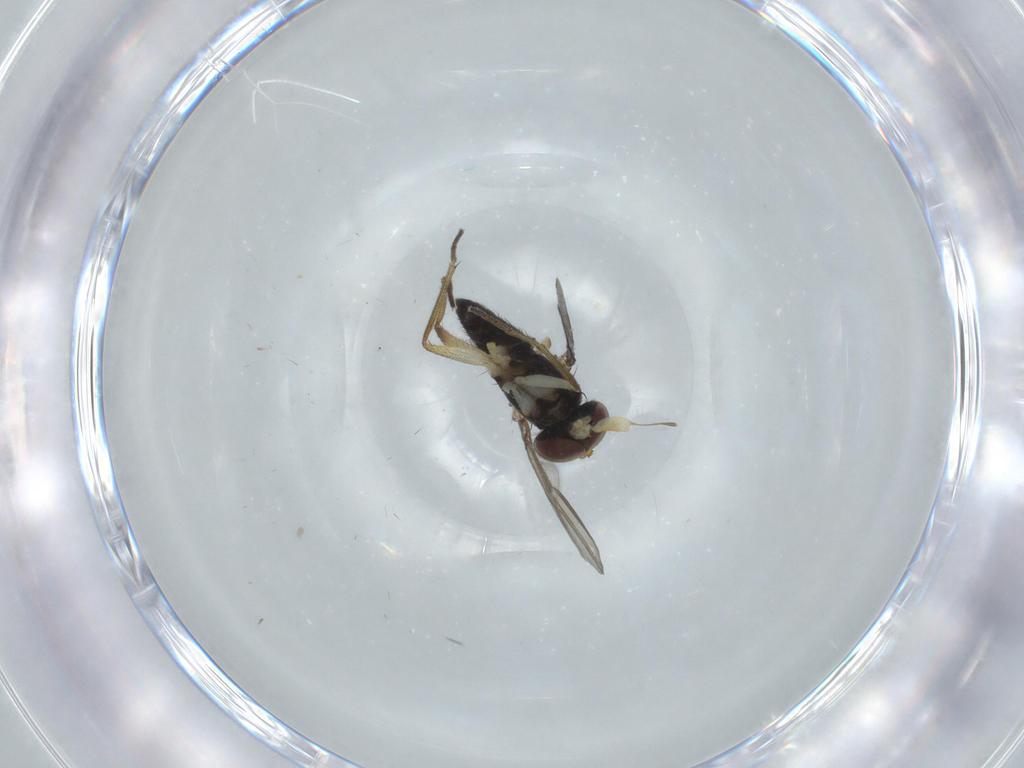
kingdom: Animalia
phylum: Arthropoda
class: Insecta
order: Diptera
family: Dolichopodidae
